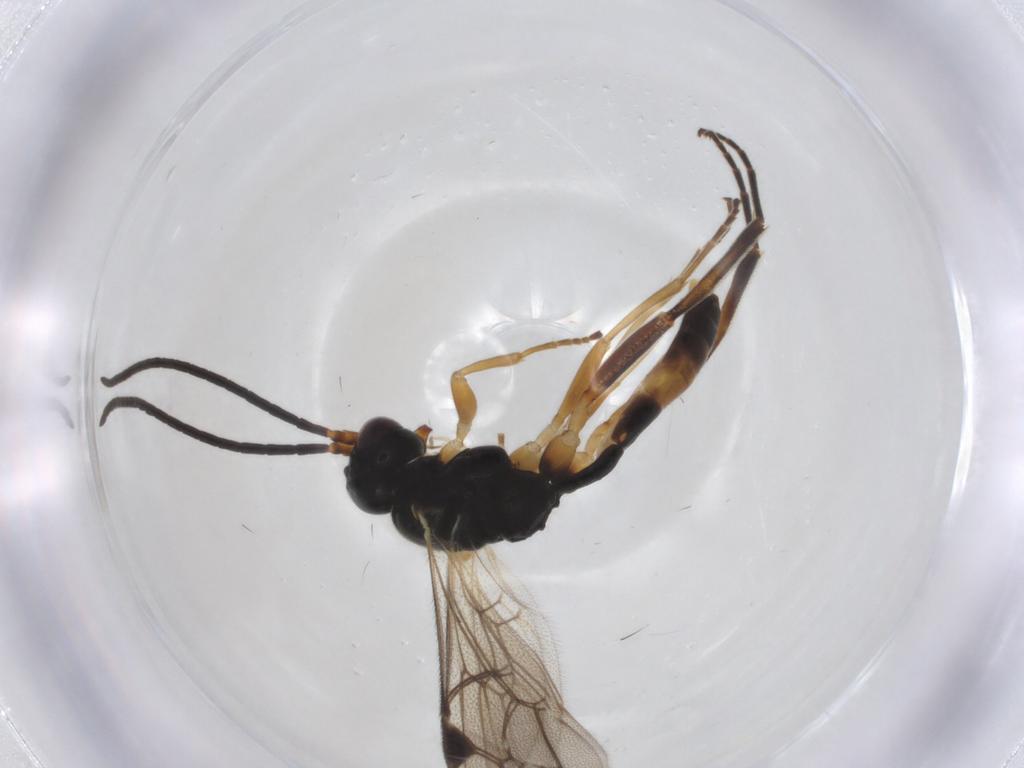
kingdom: Animalia
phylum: Arthropoda
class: Insecta
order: Hymenoptera
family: Ichneumonidae
